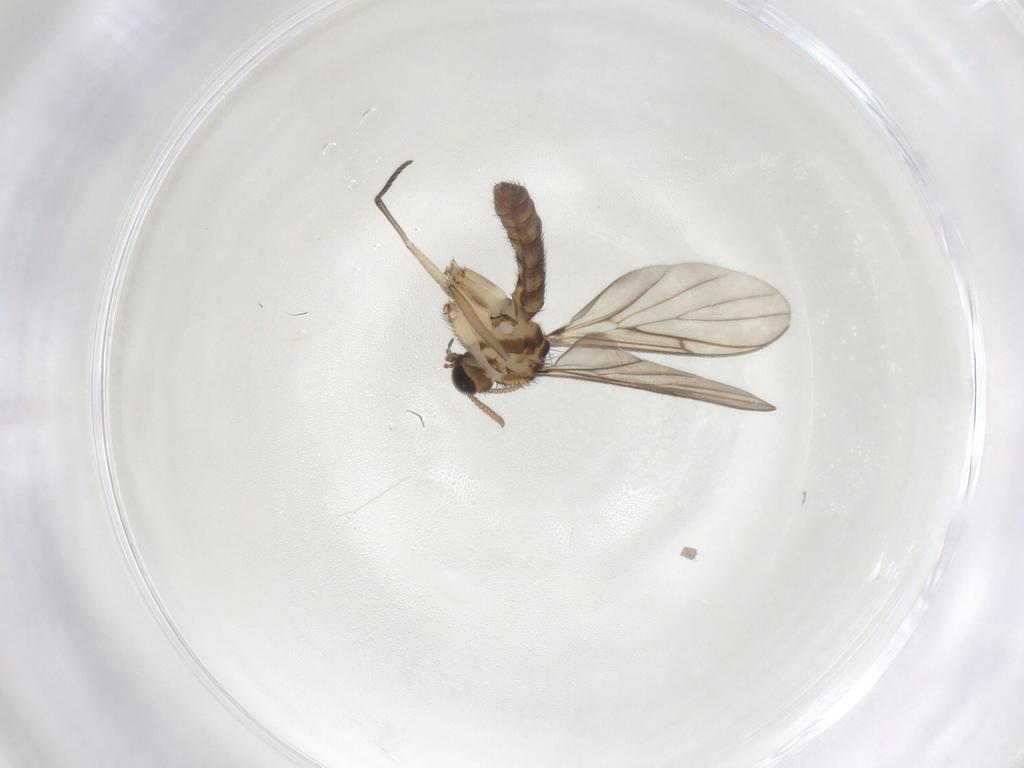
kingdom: Animalia
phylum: Arthropoda
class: Insecta
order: Diptera
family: Keroplatidae
